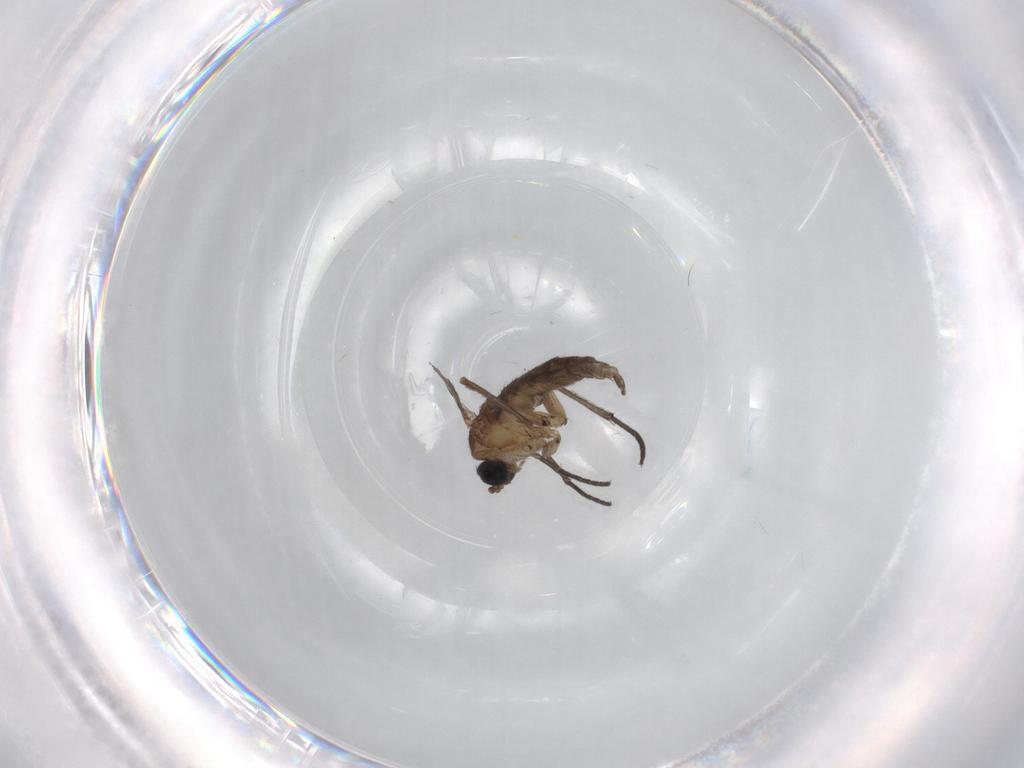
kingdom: Animalia
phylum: Arthropoda
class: Insecta
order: Diptera
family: Sciaridae
